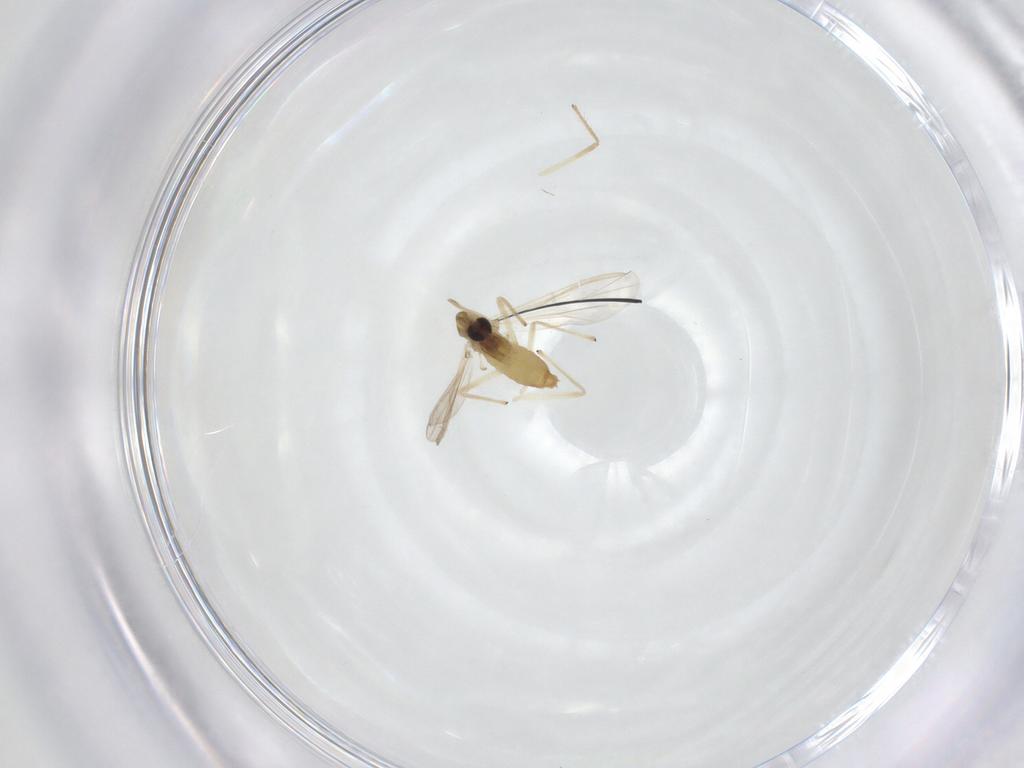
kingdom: Animalia
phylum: Arthropoda
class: Insecta
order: Diptera
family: Chironomidae
